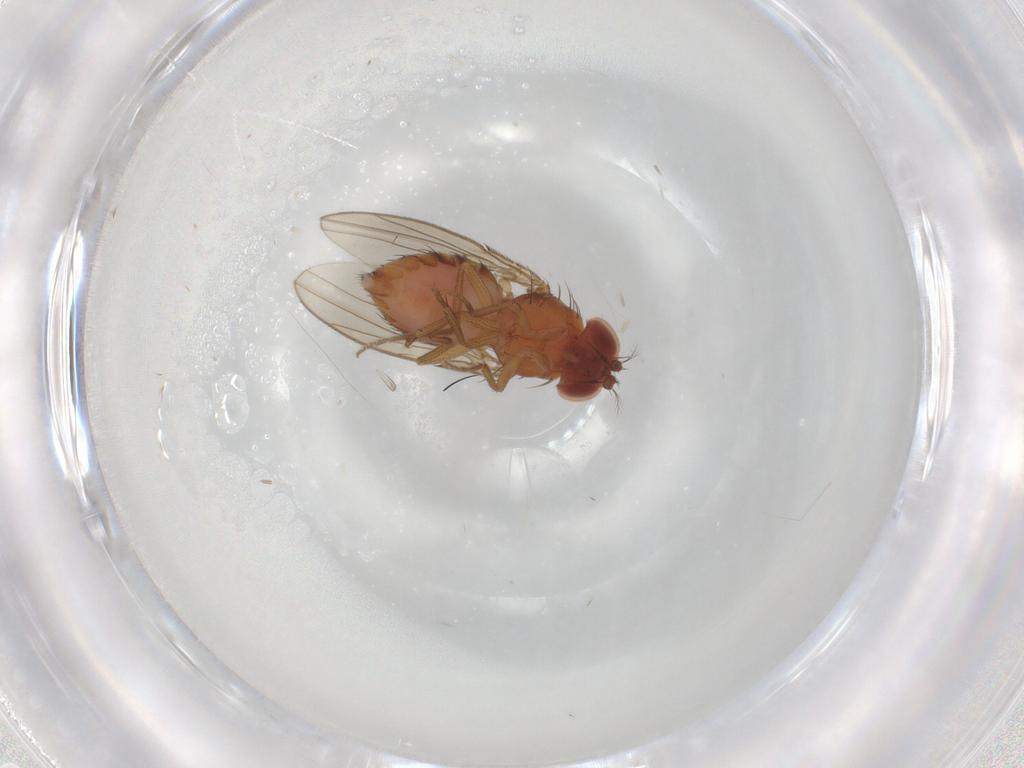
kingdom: Animalia
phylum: Arthropoda
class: Insecta
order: Diptera
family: Drosophilidae
